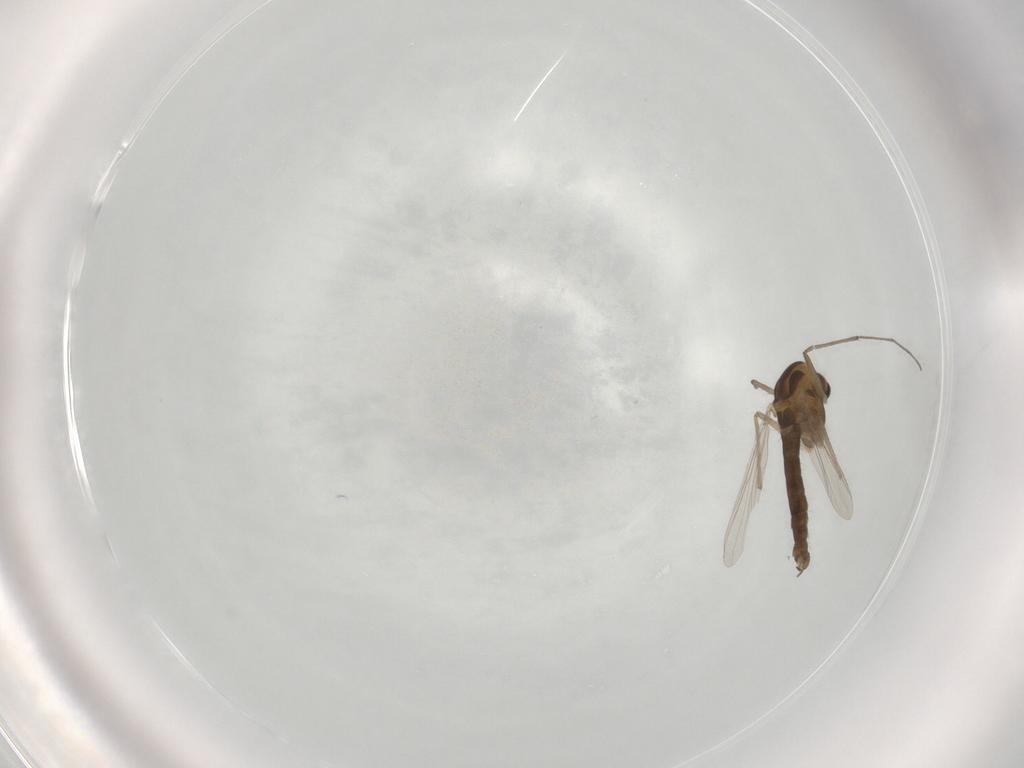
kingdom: Animalia
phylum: Arthropoda
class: Insecta
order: Diptera
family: Chironomidae
